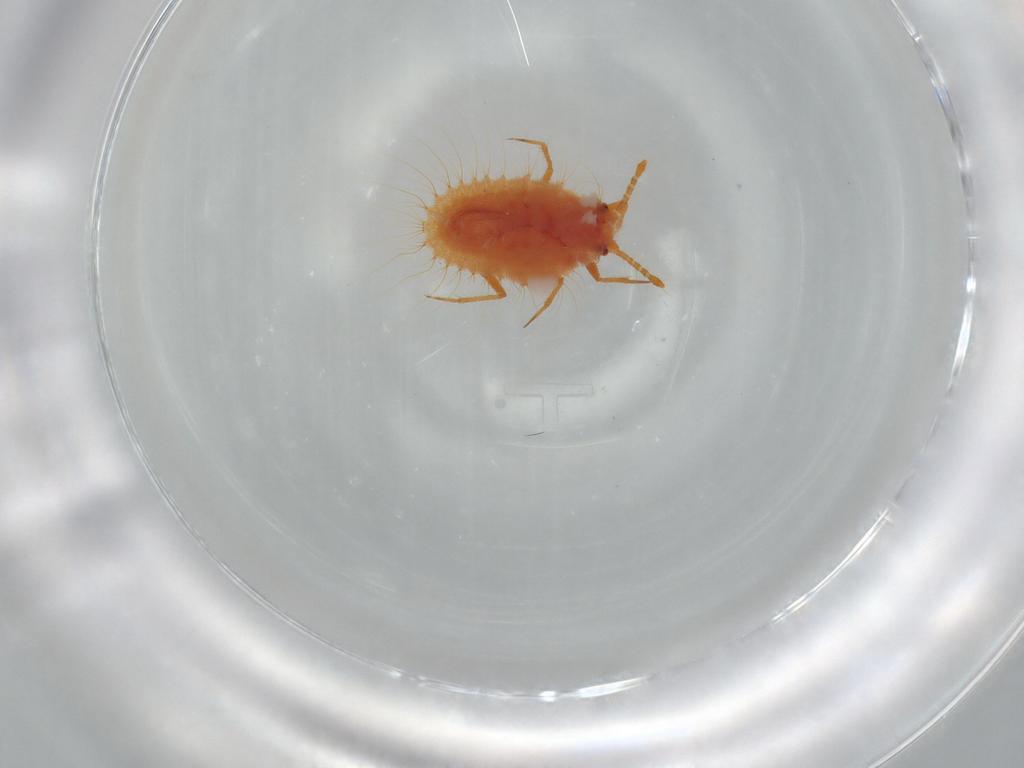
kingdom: Animalia
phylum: Arthropoda
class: Insecta
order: Hemiptera
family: Coccoidea_incertae_sedis
